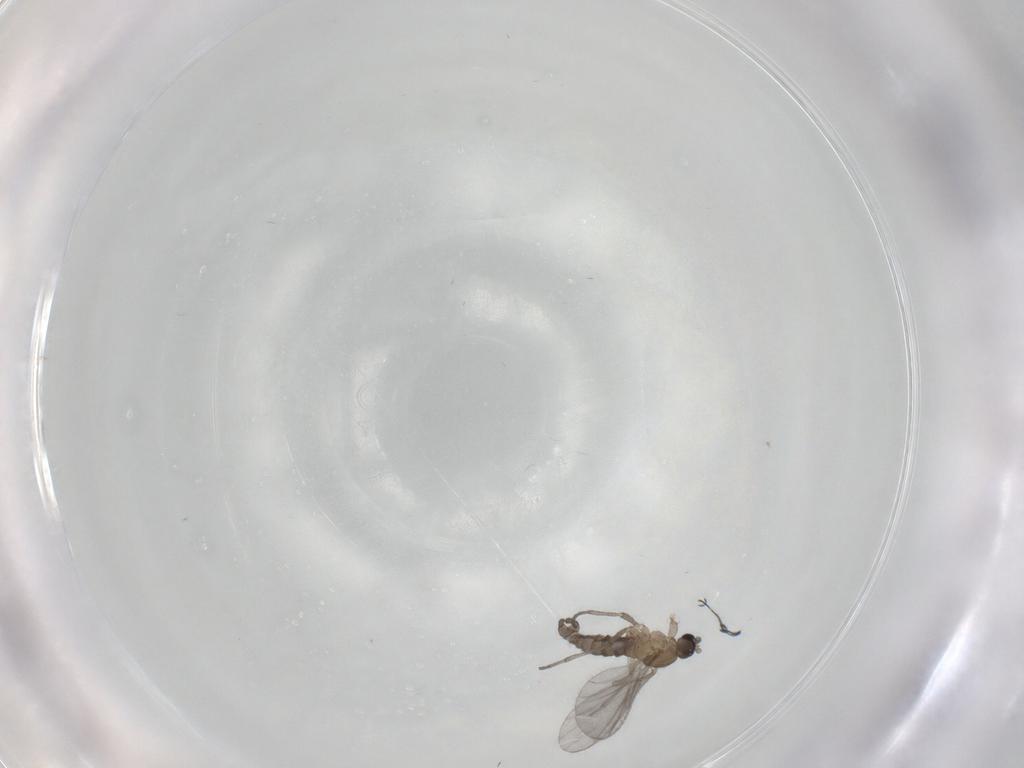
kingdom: Animalia
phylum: Arthropoda
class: Insecta
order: Diptera
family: Sciaridae
